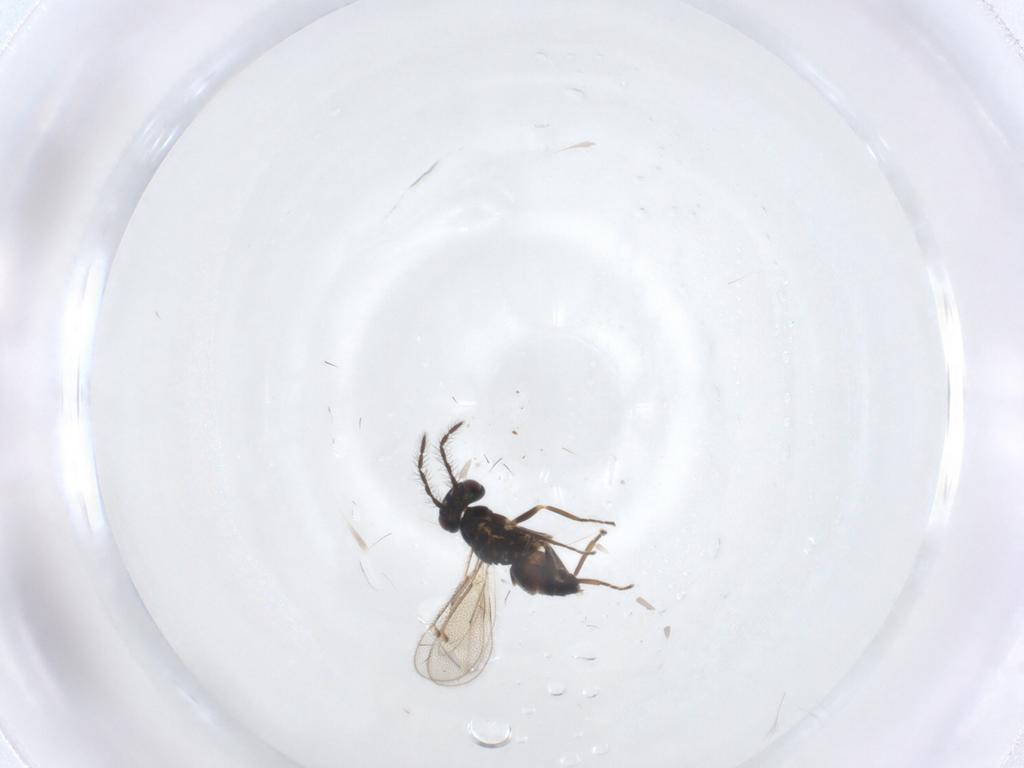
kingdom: Animalia
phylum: Arthropoda
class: Insecta
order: Hymenoptera
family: Eulophidae
